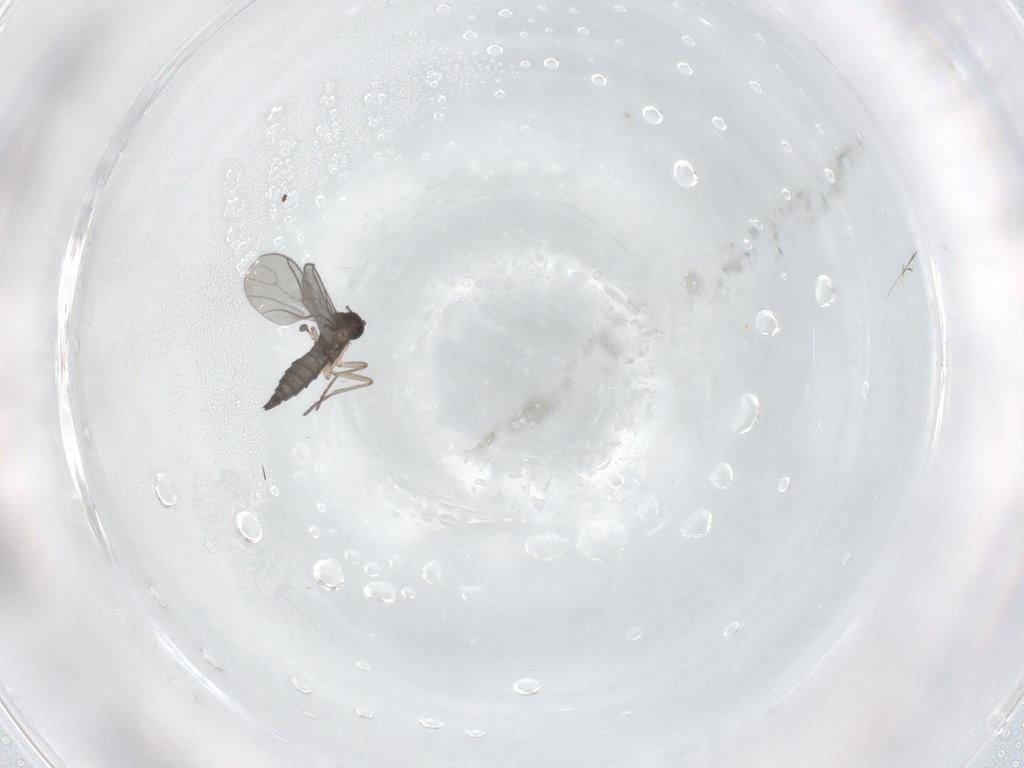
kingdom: Animalia
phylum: Arthropoda
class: Insecta
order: Diptera
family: Sciaridae
